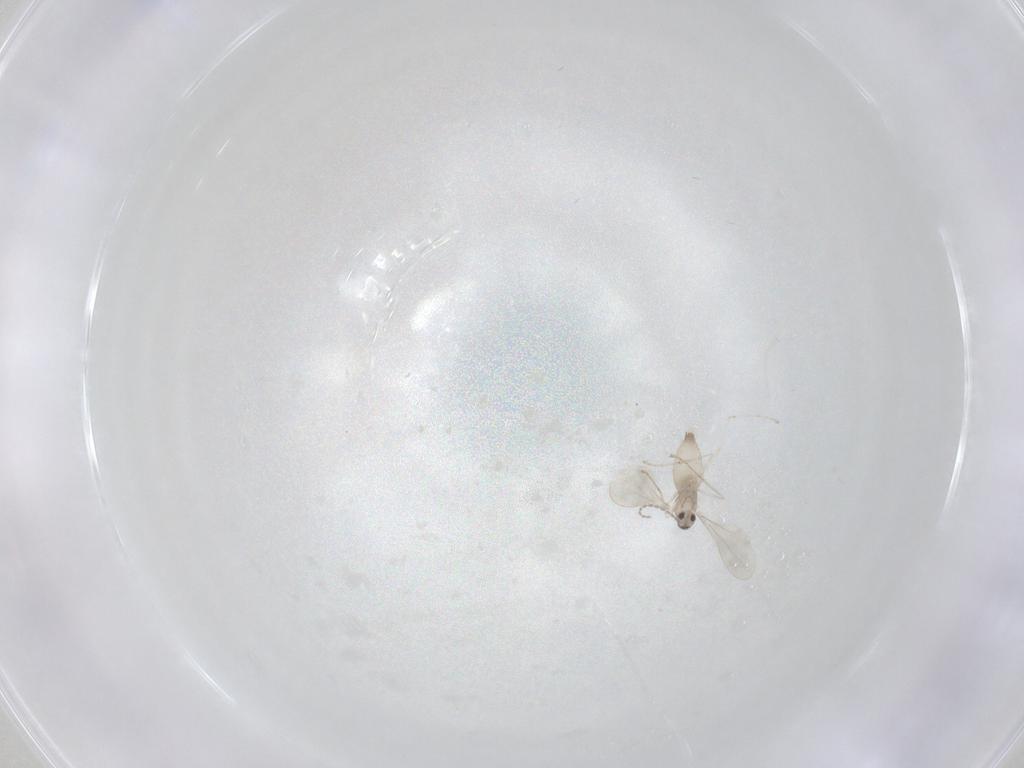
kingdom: Animalia
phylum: Arthropoda
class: Insecta
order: Diptera
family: Cecidomyiidae
